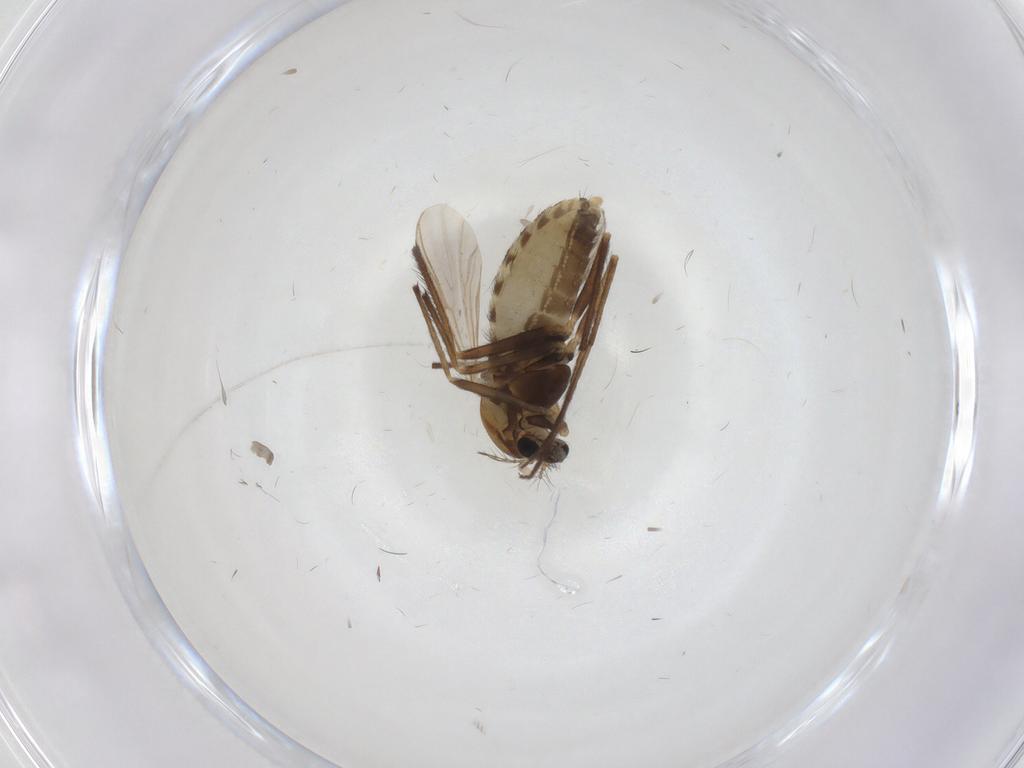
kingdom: Animalia
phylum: Arthropoda
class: Insecta
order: Diptera
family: Chironomidae
